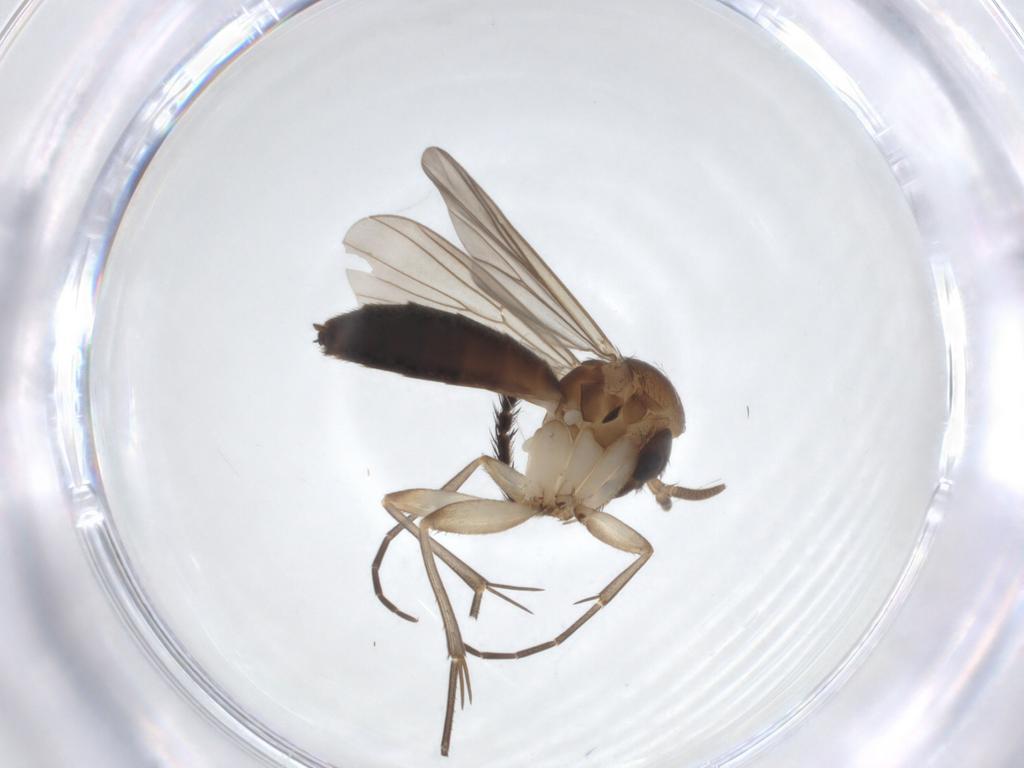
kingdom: Animalia
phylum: Arthropoda
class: Insecta
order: Diptera
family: Mycetophilidae
